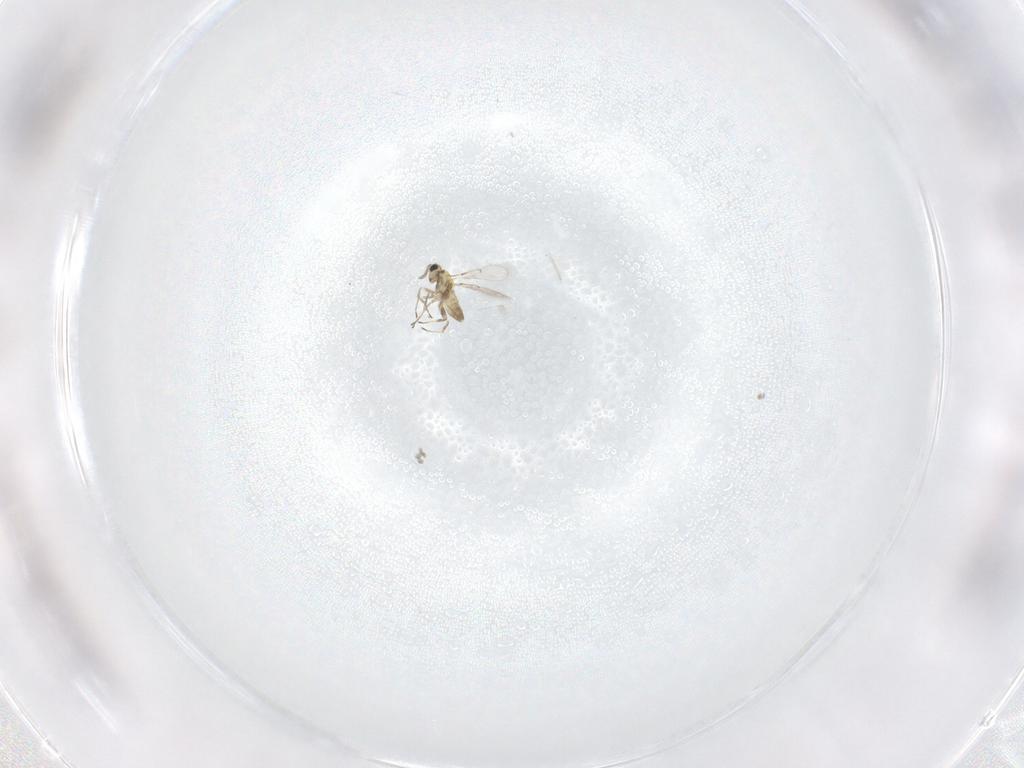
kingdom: Animalia
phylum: Arthropoda
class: Insecta
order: Hymenoptera
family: Trichogrammatidae
